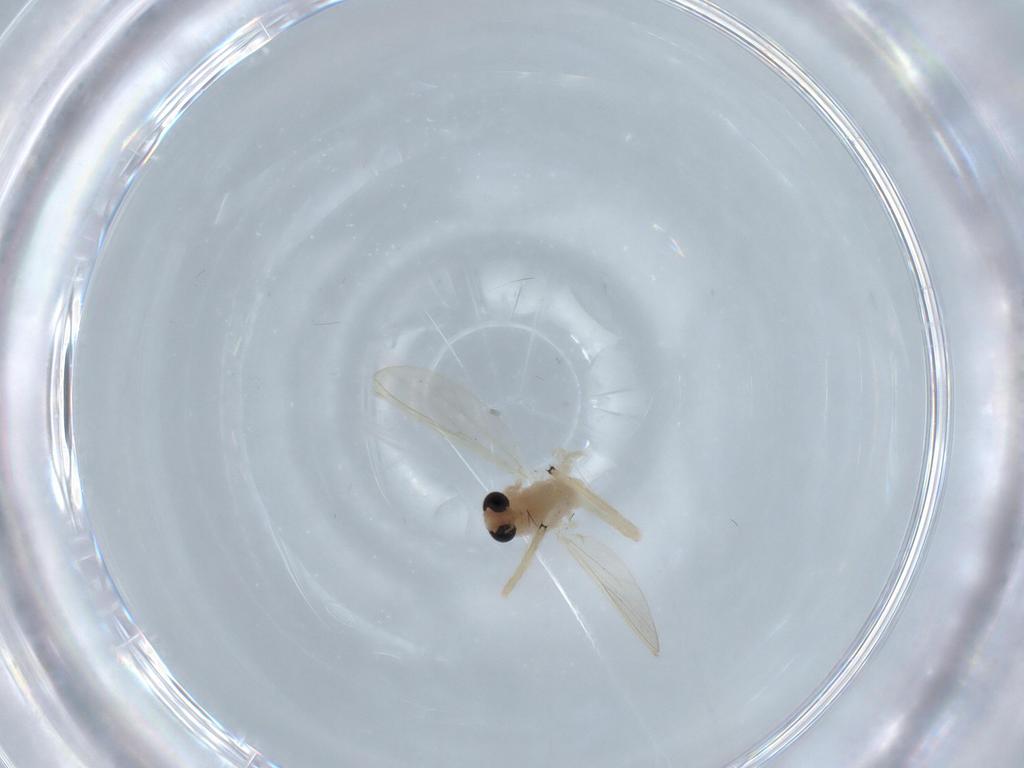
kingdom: Animalia
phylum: Arthropoda
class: Insecta
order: Diptera
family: Chironomidae
